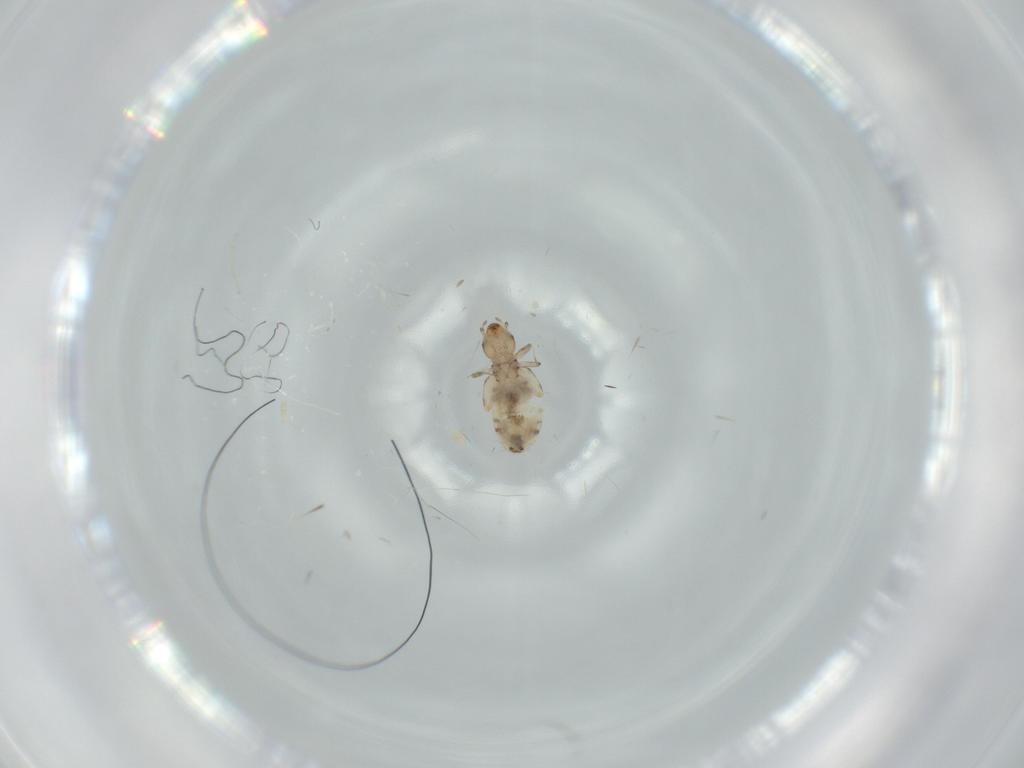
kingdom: Animalia
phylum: Arthropoda
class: Insecta
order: Psocodea
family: Liposcelididae
